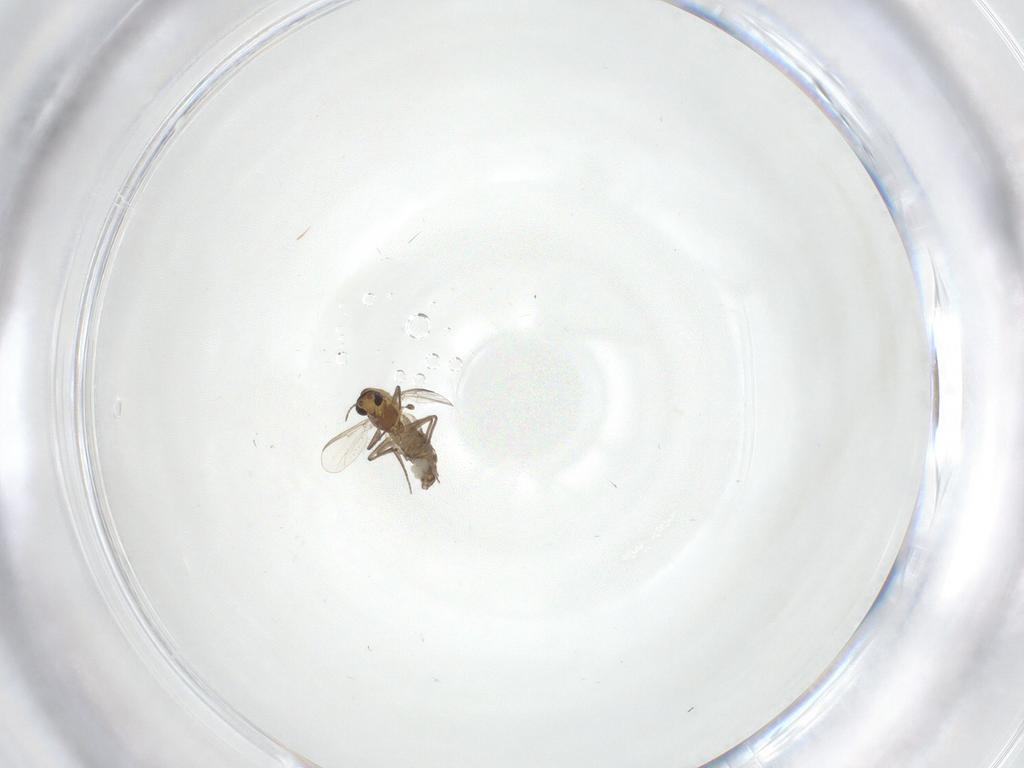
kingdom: Animalia
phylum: Arthropoda
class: Insecta
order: Diptera
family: Chironomidae
